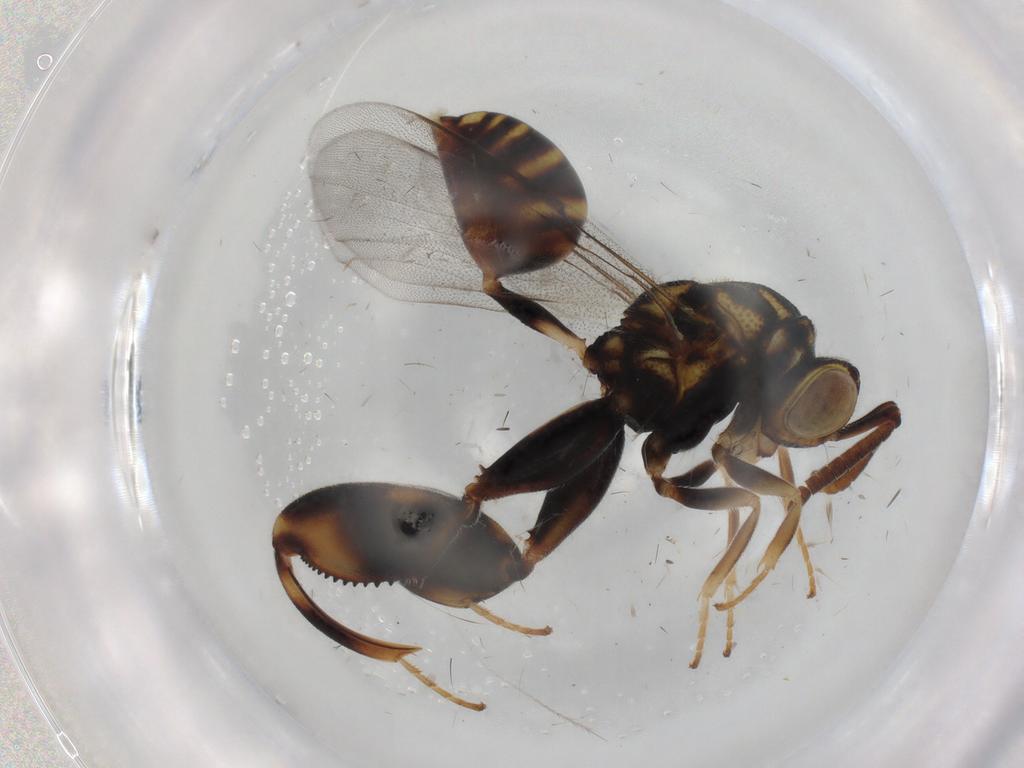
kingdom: Animalia
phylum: Arthropoda
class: Insecta
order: Hymenoptera
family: Scelionidae
